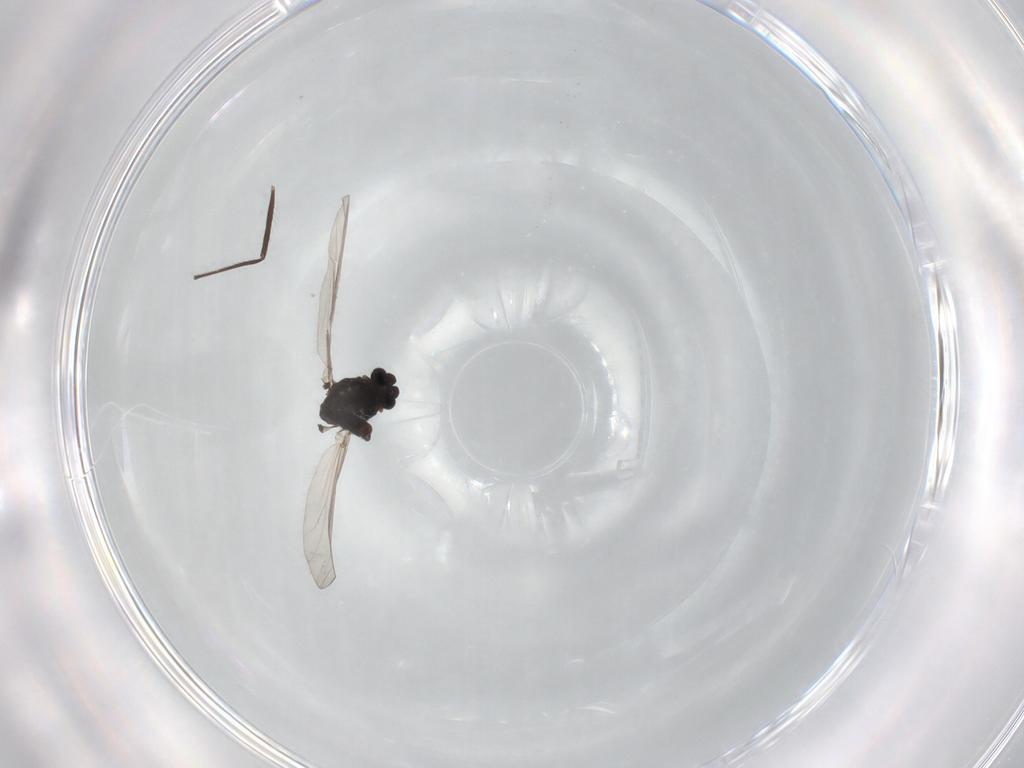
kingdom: Animalia
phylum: Arthropoda
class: Insecta
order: Diptera
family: Chironomidae
